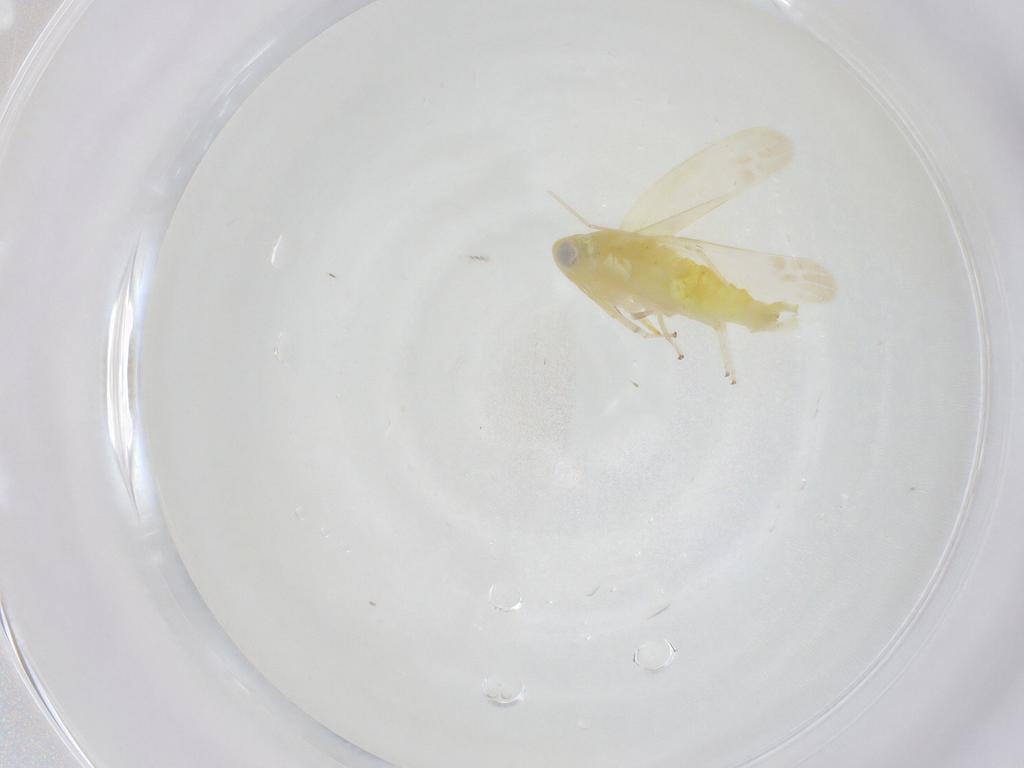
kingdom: Animalia
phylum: Arthropoda
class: Insecta
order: Hemiptera
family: Cicadellidae
